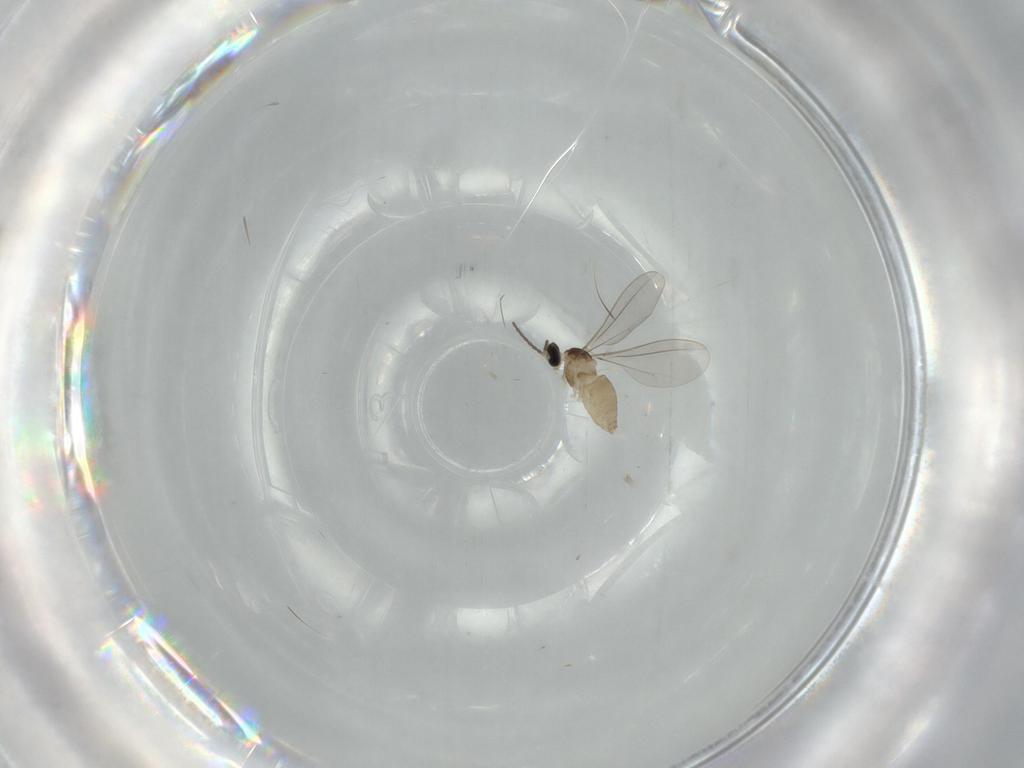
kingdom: Animalia
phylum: Arthropoda
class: Insecta
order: Diptera
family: Cecidomyiidae
